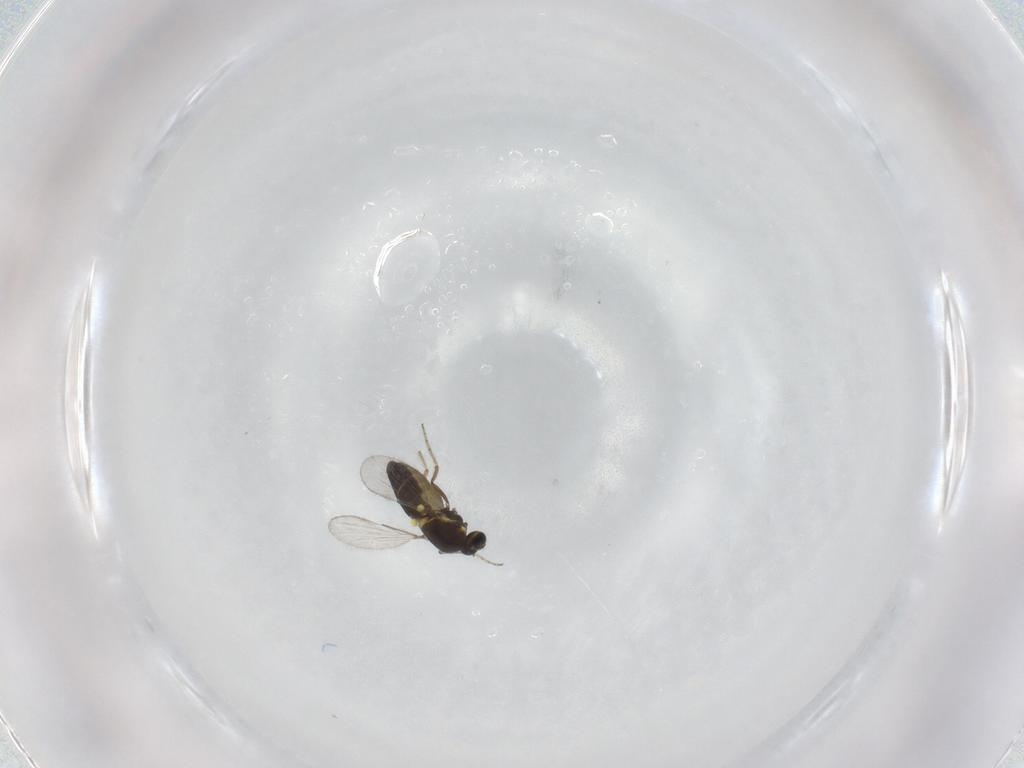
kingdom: Animalia
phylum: Arthropoda
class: Insecta
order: Diptera
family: Ceratopogonidae
